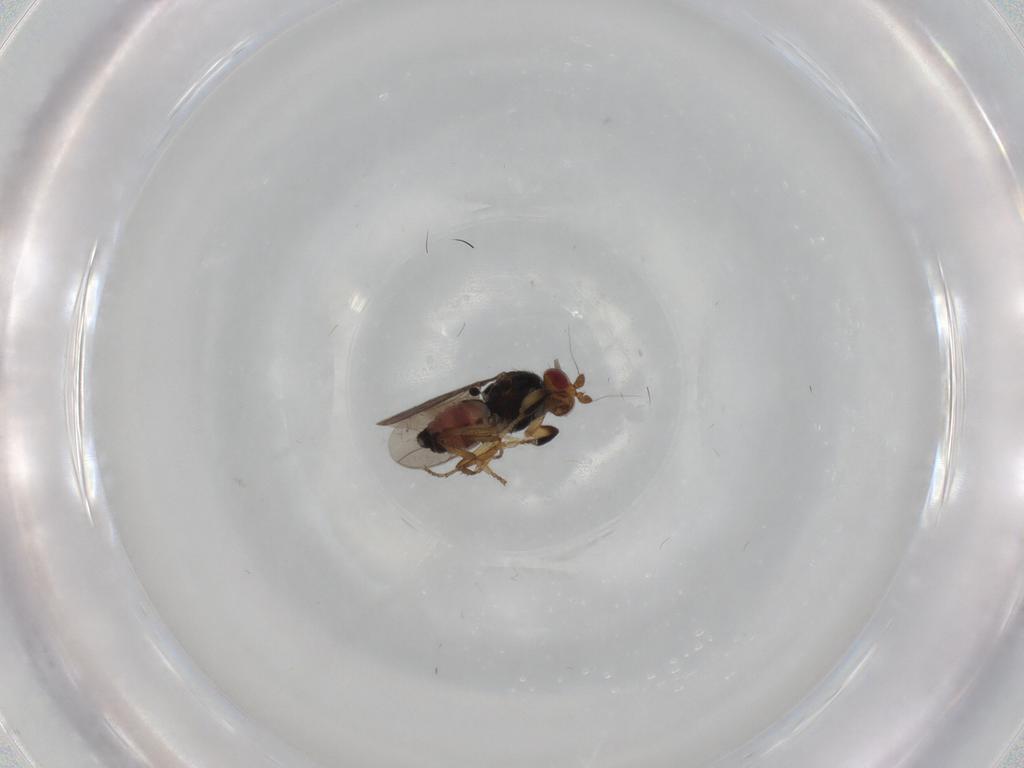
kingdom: Animalia
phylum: Arthropoda
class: Insecta
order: Diptera
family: Sphaeroceridae
